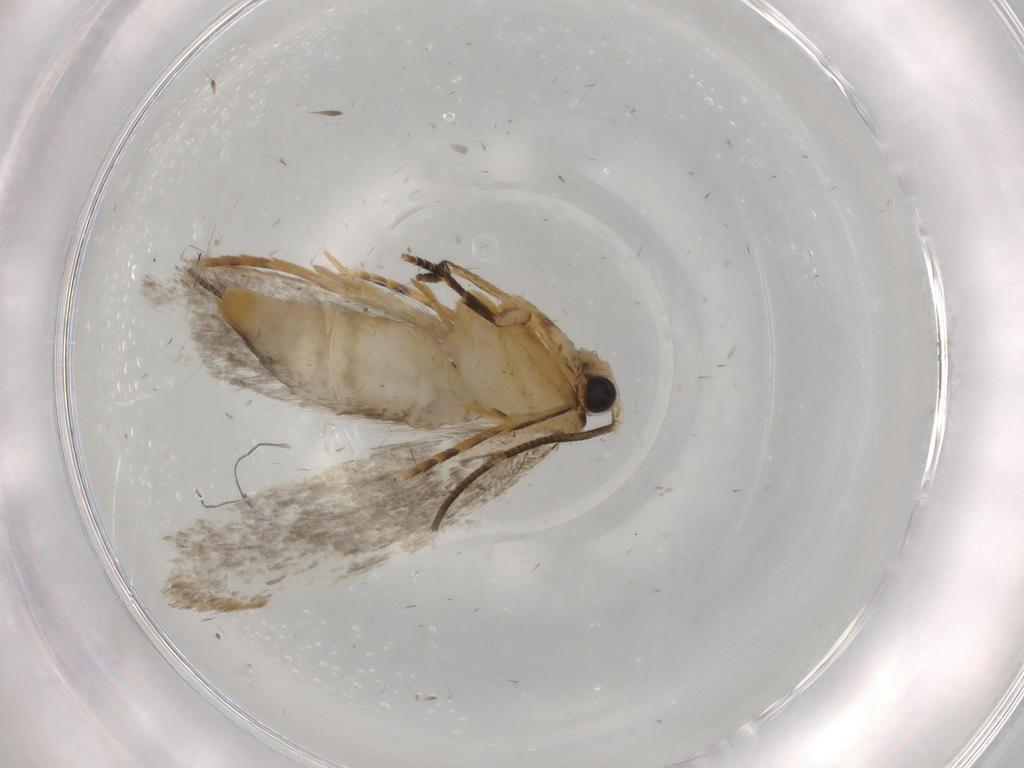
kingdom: Animalia
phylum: Arthropoda
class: Insecta
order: Lepidoptera
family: Tineidae
